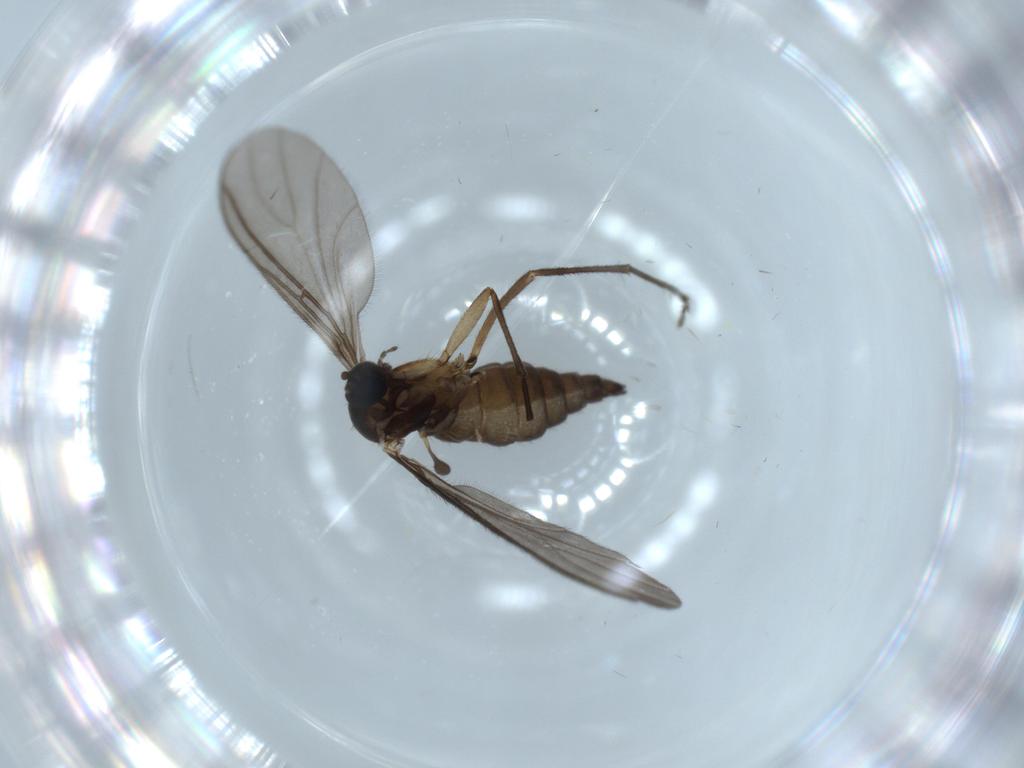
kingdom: Animalia
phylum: Arthropoda
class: Insecta
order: Diptera
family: Sciaridae
